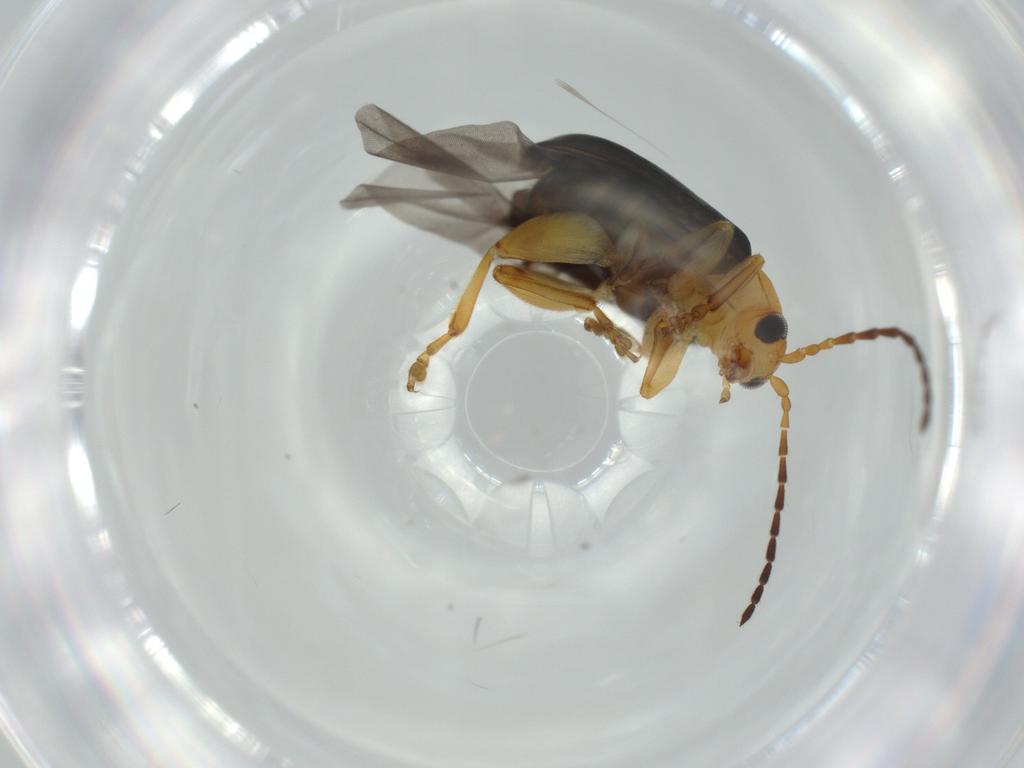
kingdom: Animalia
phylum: Arthropoda
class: Insecta
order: Coleoptera
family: Chrysomelidae
